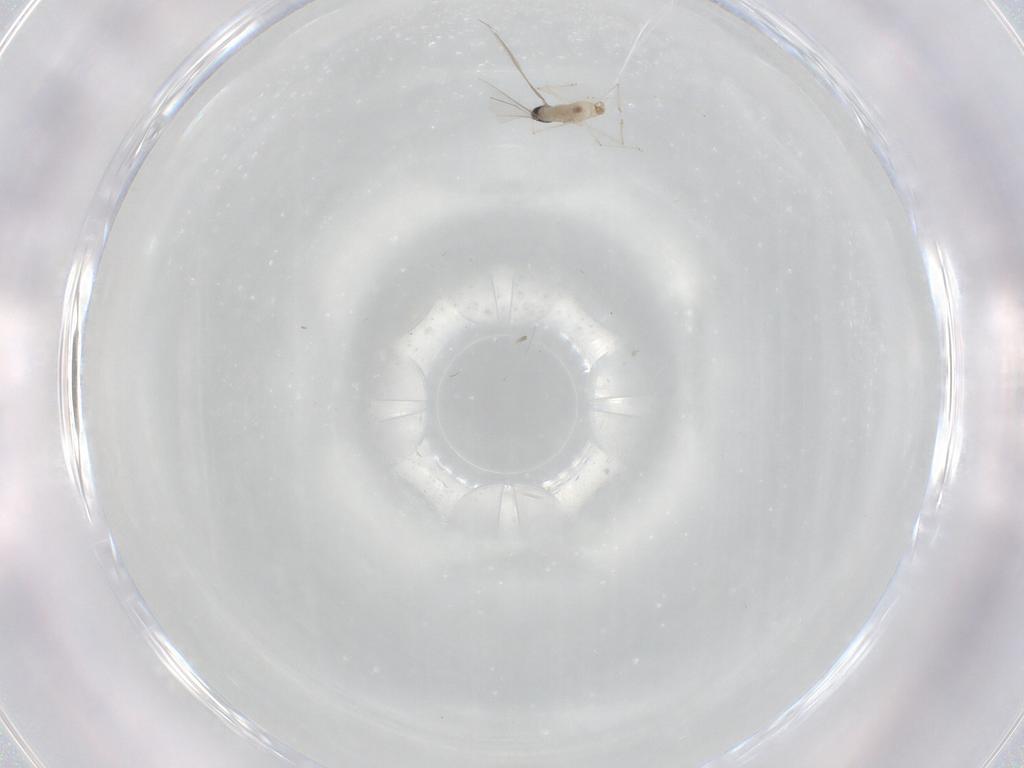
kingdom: Animalia
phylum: Arthropoda
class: Insecta
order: Diptera
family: Cecidomyiidae
